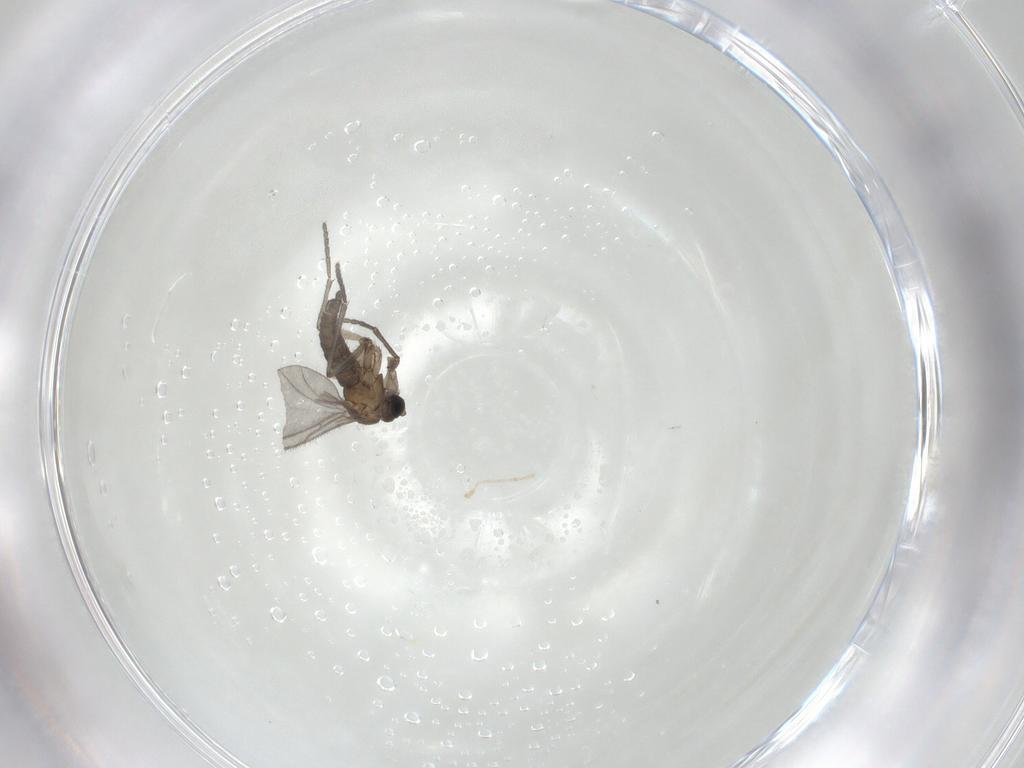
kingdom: Animalia
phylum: Arthropoda
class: Insecta
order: Diptera
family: Sciaridae
